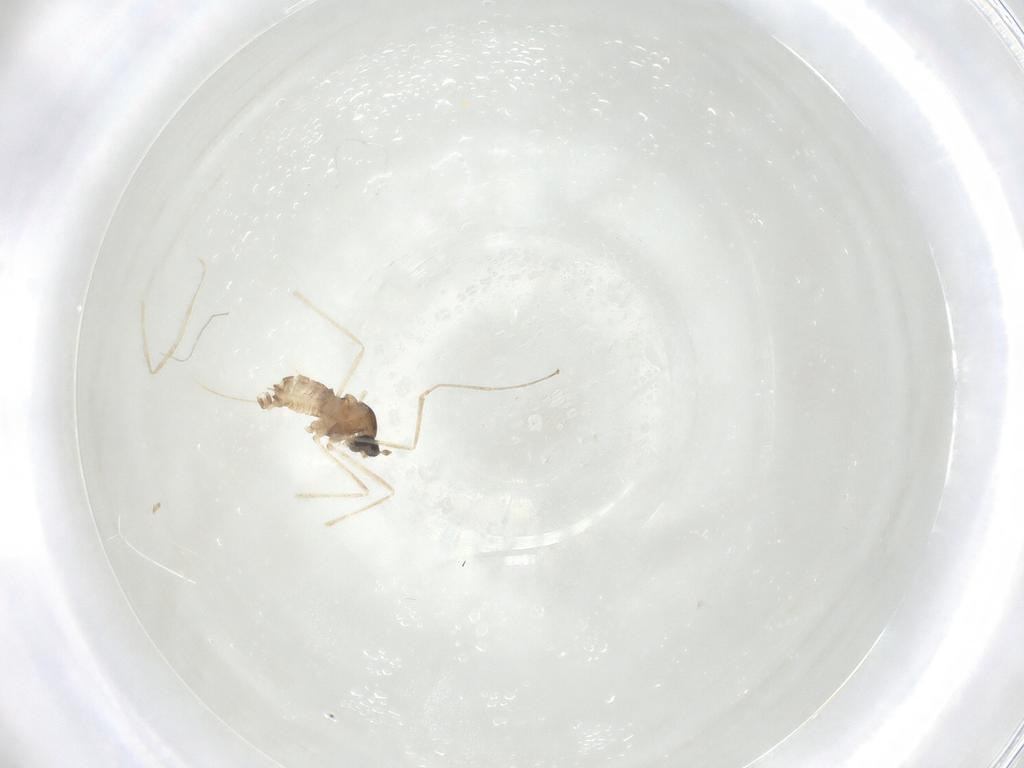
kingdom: Animalia
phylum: Arthropoda
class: Insecta
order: Diptera
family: Cecidomyiidae
